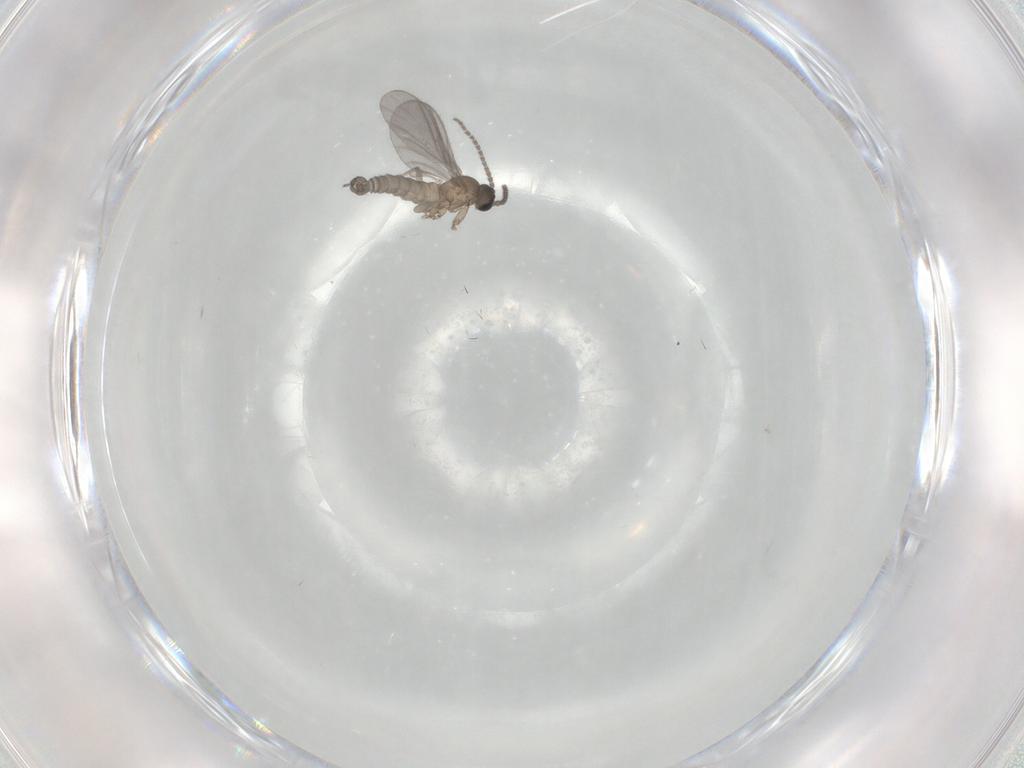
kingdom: Animalia
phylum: Arthropoda
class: Insecta
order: Diptera
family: Sciaridae
